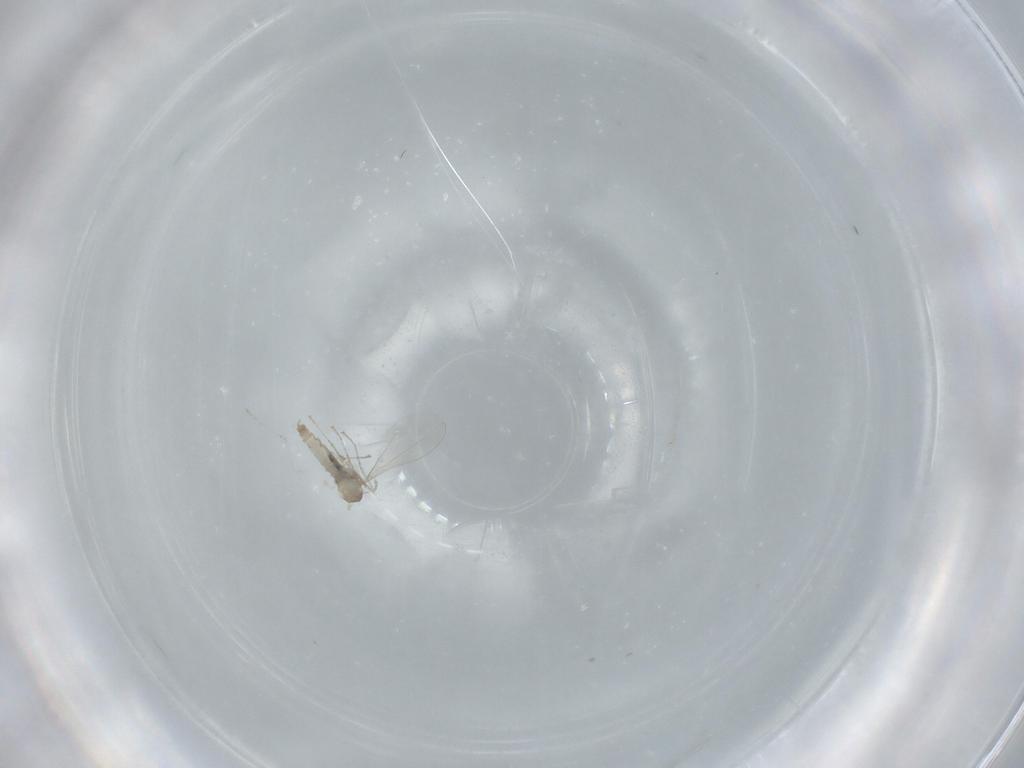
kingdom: Animalia
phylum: Arthropoda
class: Insecta
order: Diptera
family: Cecidomyiidae
